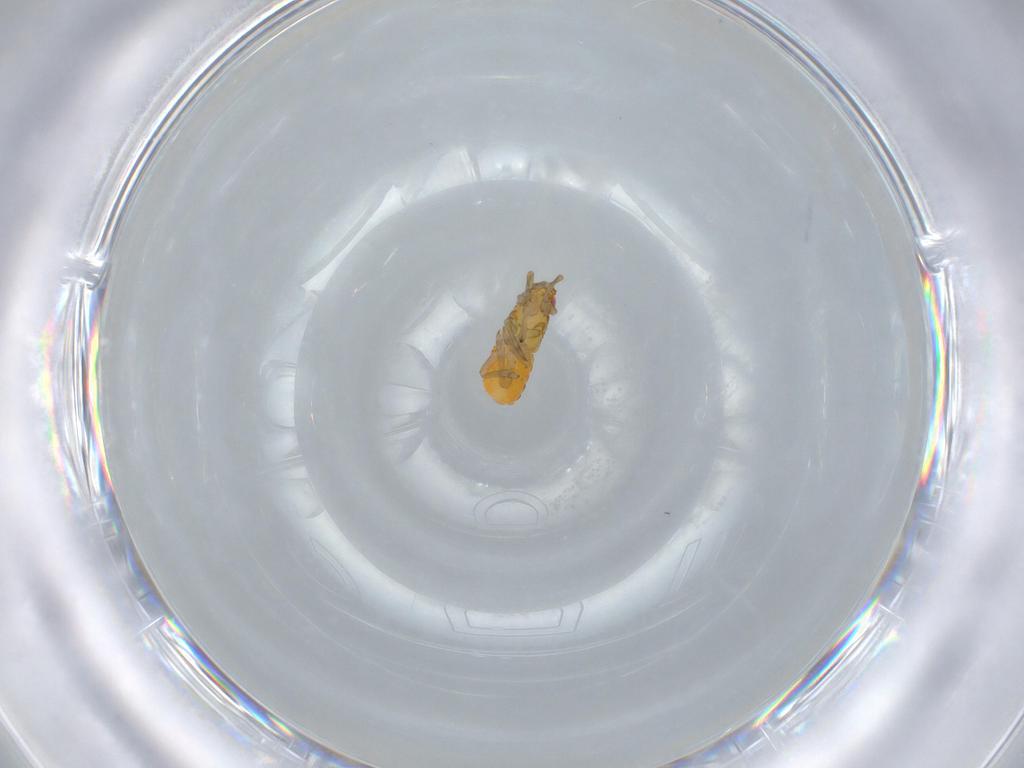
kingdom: Animalia
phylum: Arthropoda
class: Insecta
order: Hemiptera
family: Delphacidae
